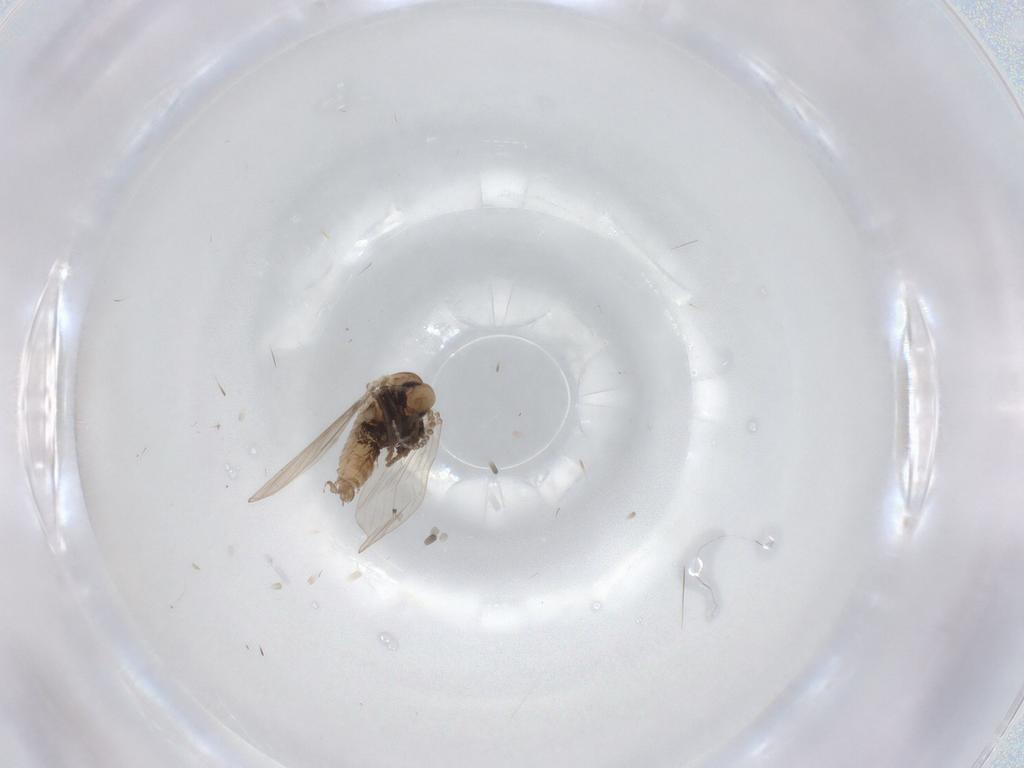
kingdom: Animalia
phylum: Arthropoda
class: Insecta
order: Diptera
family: Psychodidae
